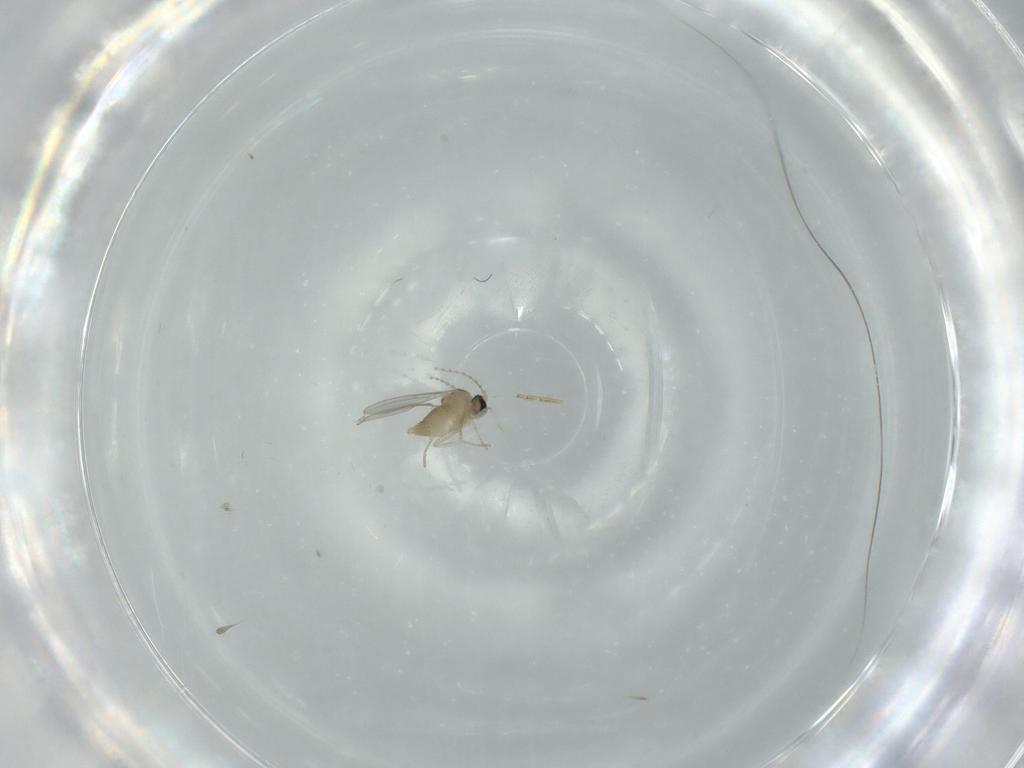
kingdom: Animalia
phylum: Arthropoda
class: Insecta
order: Diptera
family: Cecidomyiidae
